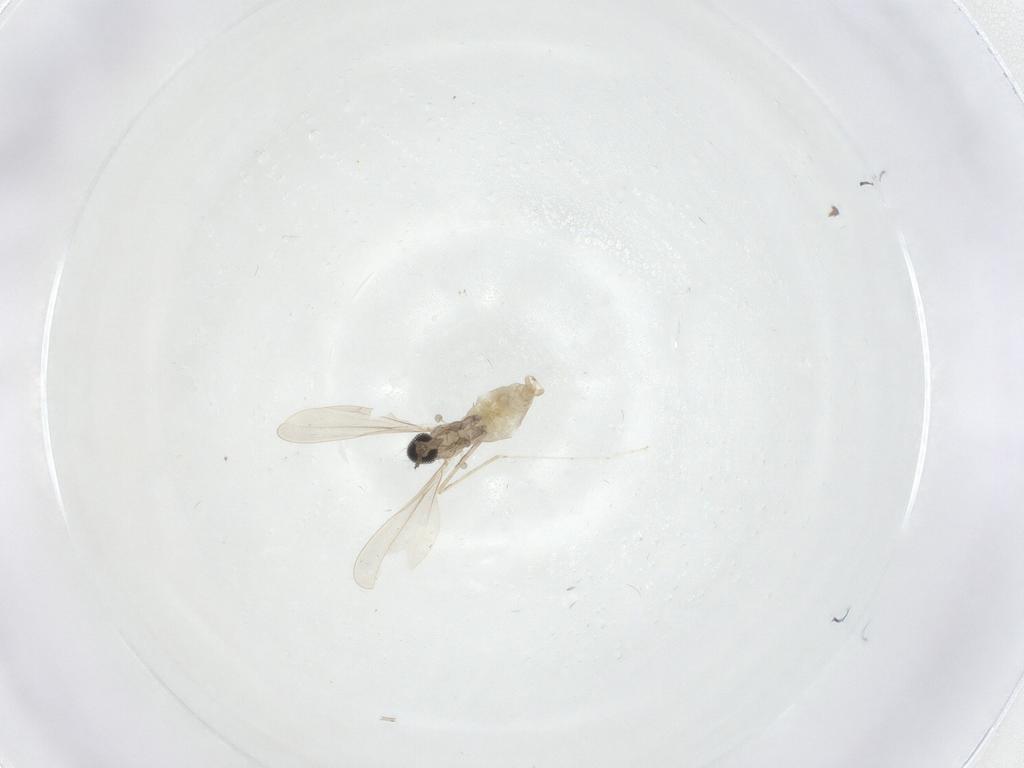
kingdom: Animalia
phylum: Arthropoda
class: Insecta
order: Diptera
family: Cecidomyiidae
